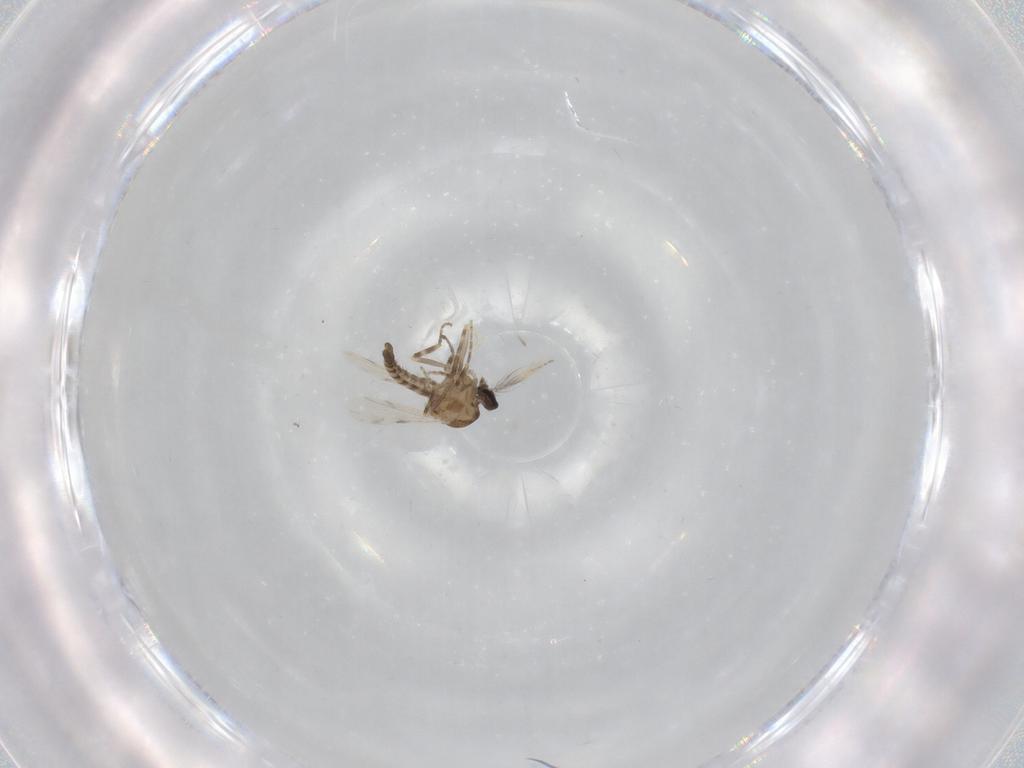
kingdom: Animalia
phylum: Arthropoda
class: Insecta
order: Diptera
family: Ceratopogonidae
